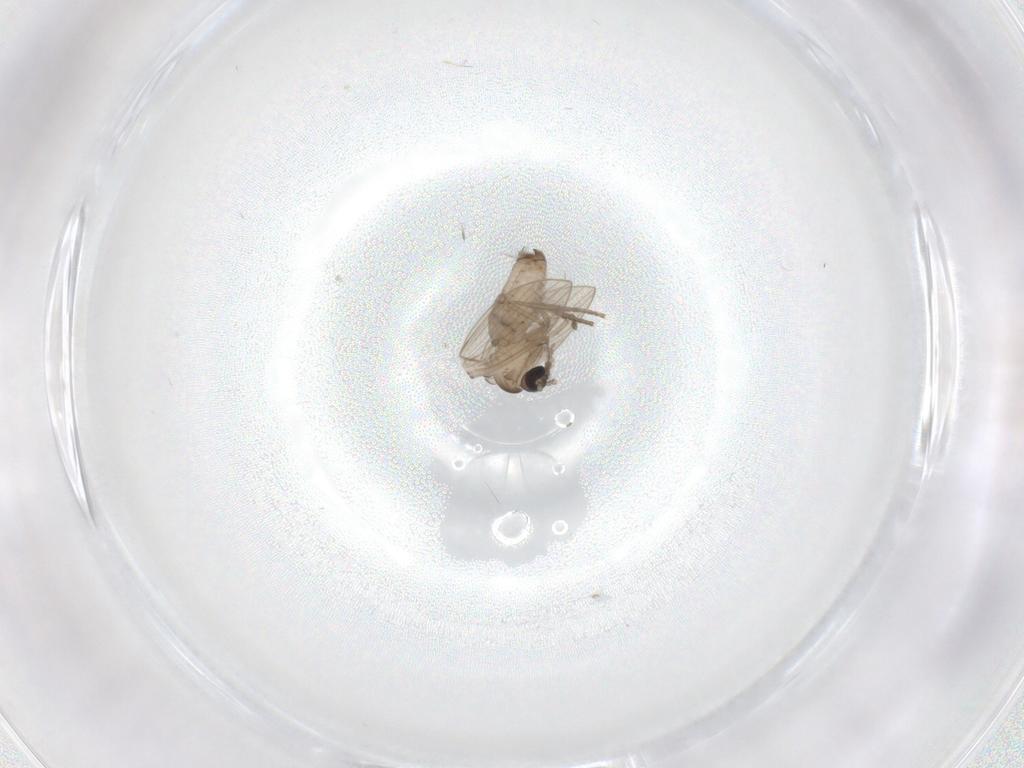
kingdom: Animalia
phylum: Arthropoda
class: Insecta
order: Diptera
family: Psychodidae
